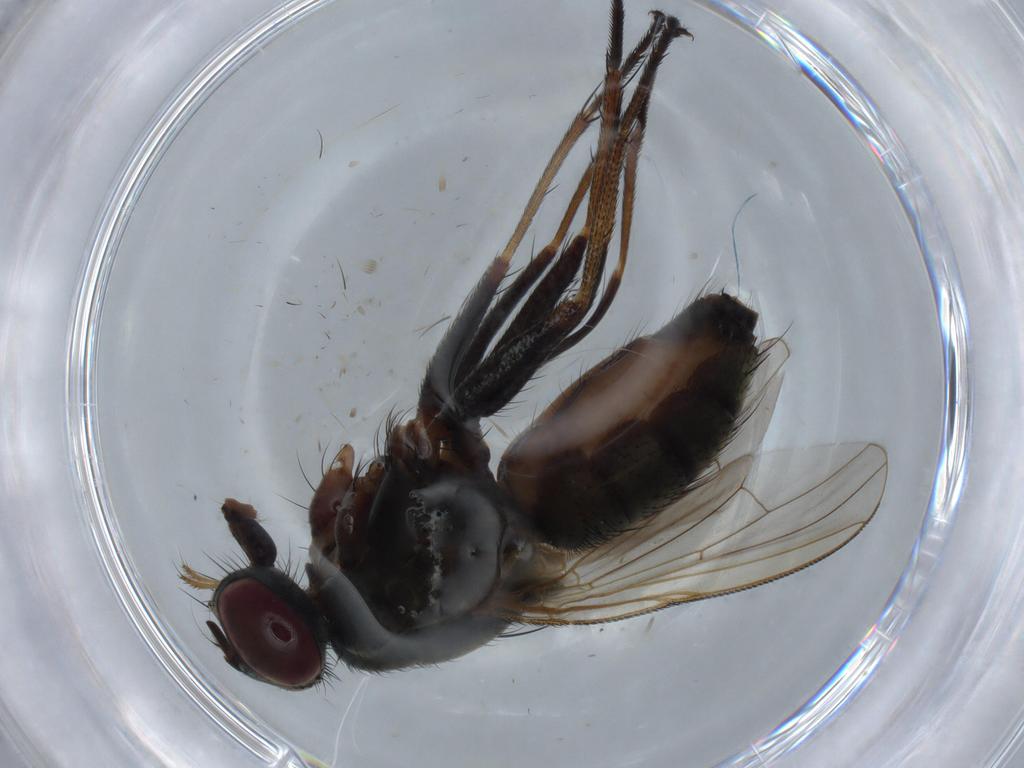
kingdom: Animalia
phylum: Arthropoda
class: Insecta
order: Diptera
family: Muscidae
